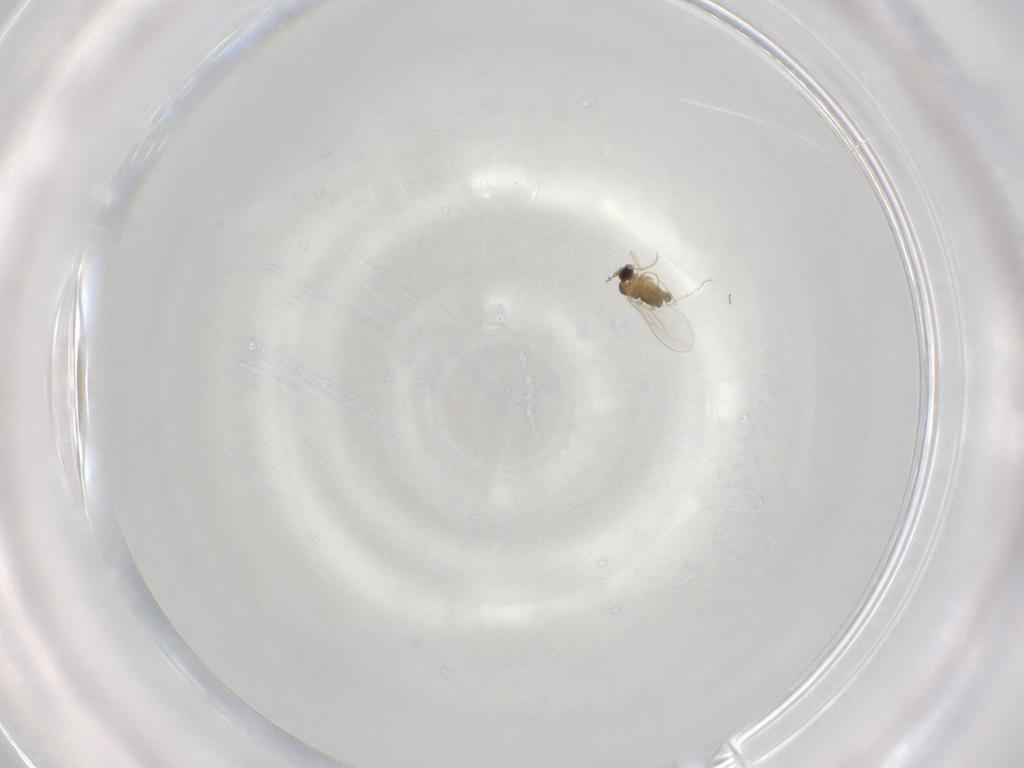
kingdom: Animalia
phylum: Arthropoda
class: Insecta
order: Diptera
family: Cecidomyiidae
